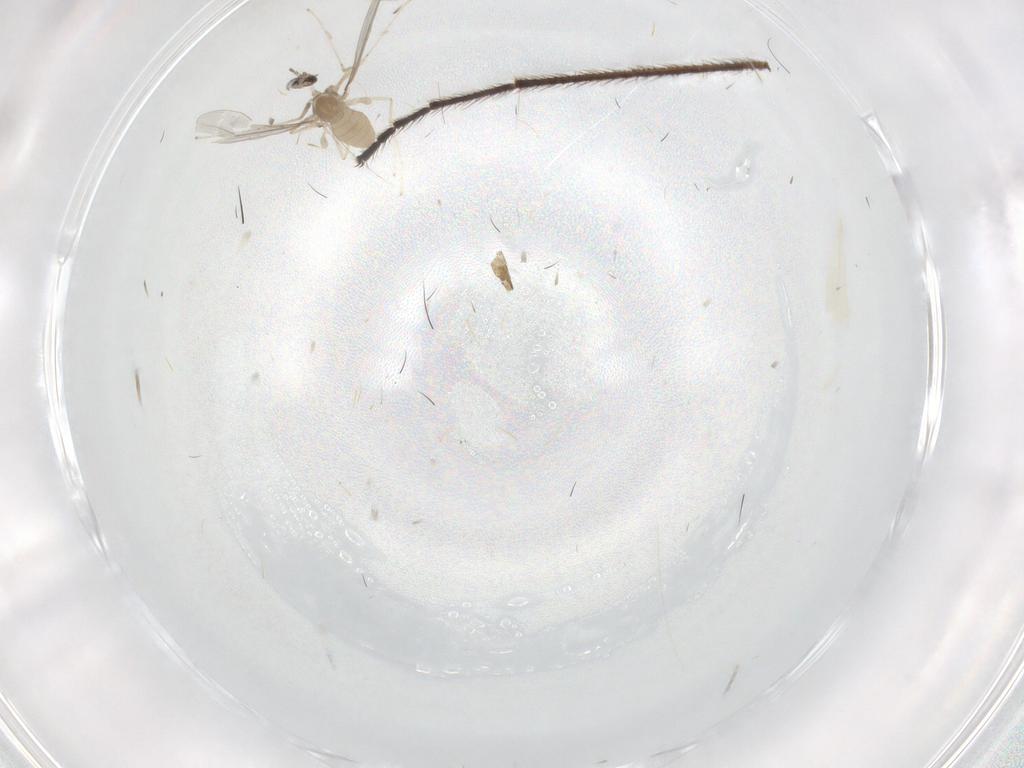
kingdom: Animalia
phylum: Arthropoda
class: Insecta
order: Diptera
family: Cecidomyiidae
